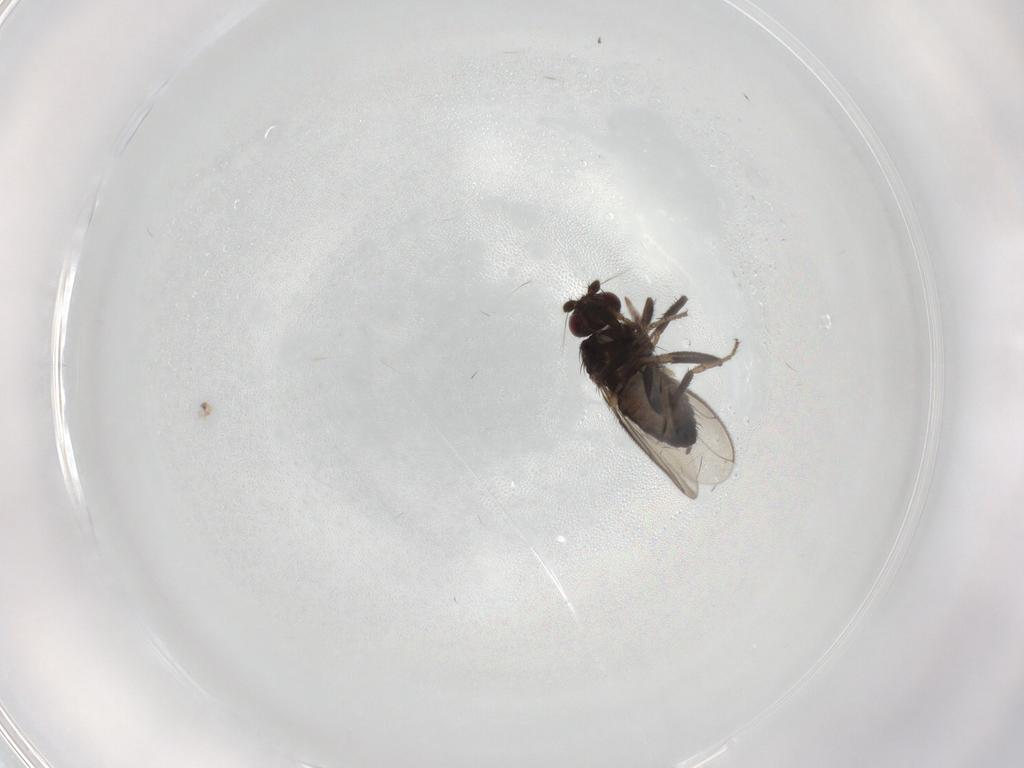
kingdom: Animalia
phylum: Arthropoda
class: Insecta
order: Diptera
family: Sphaeroceridae
